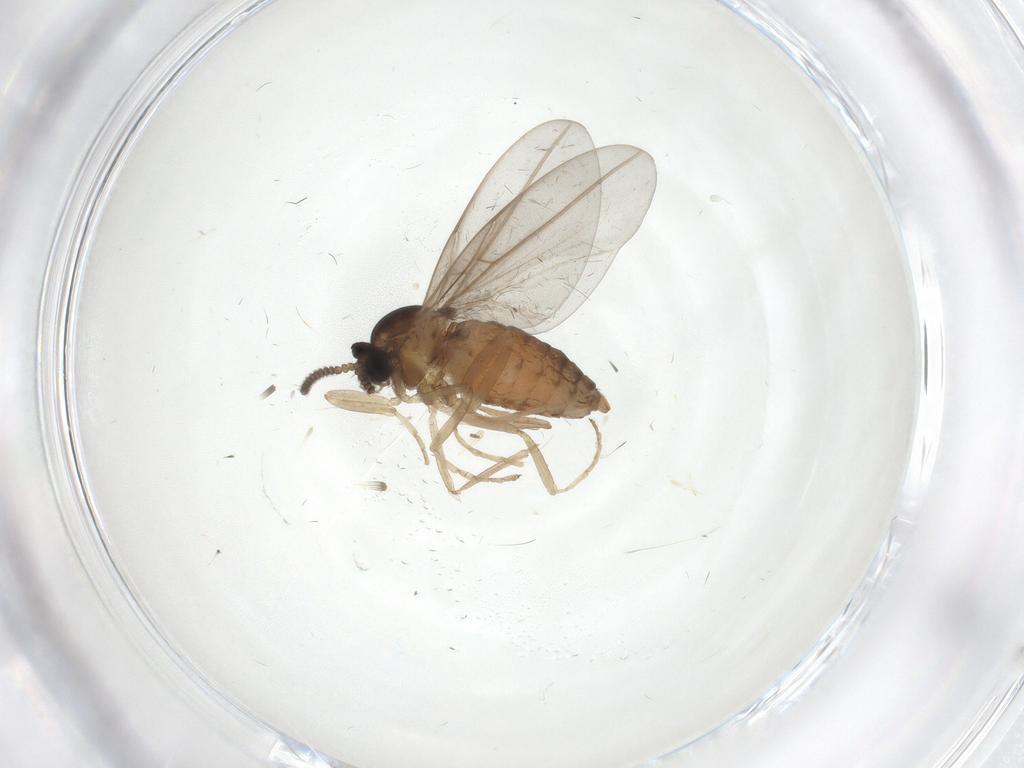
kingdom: Animalia
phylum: Arthropoda
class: Insecta
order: Diptera
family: Cecidomyiidae
